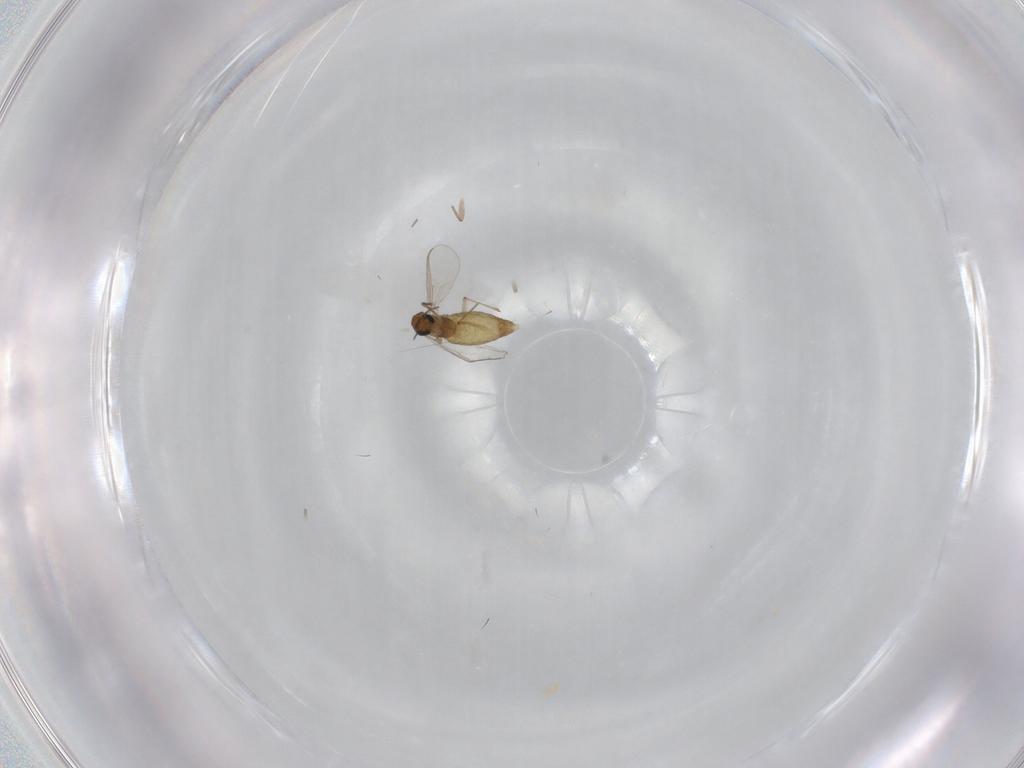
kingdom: Animalia
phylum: Arthropoda
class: Insecta
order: Diptera
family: Chironomidae
